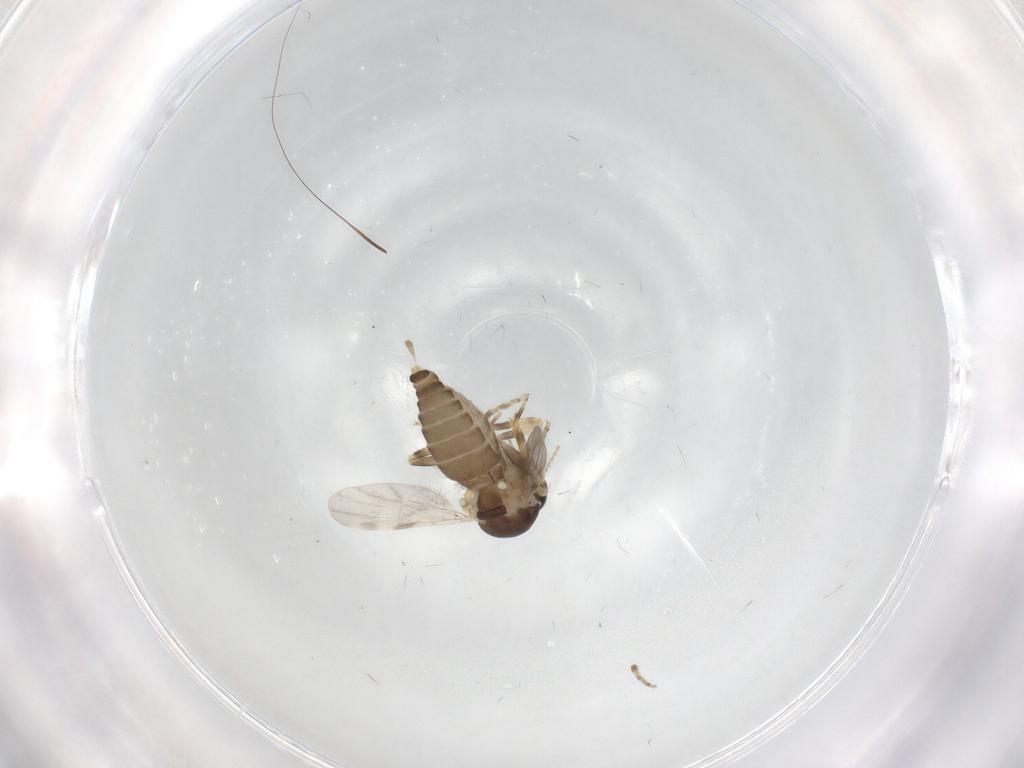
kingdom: Animalia
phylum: Arthropoda
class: Insecta
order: Diptera
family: Ceratopogonidae
